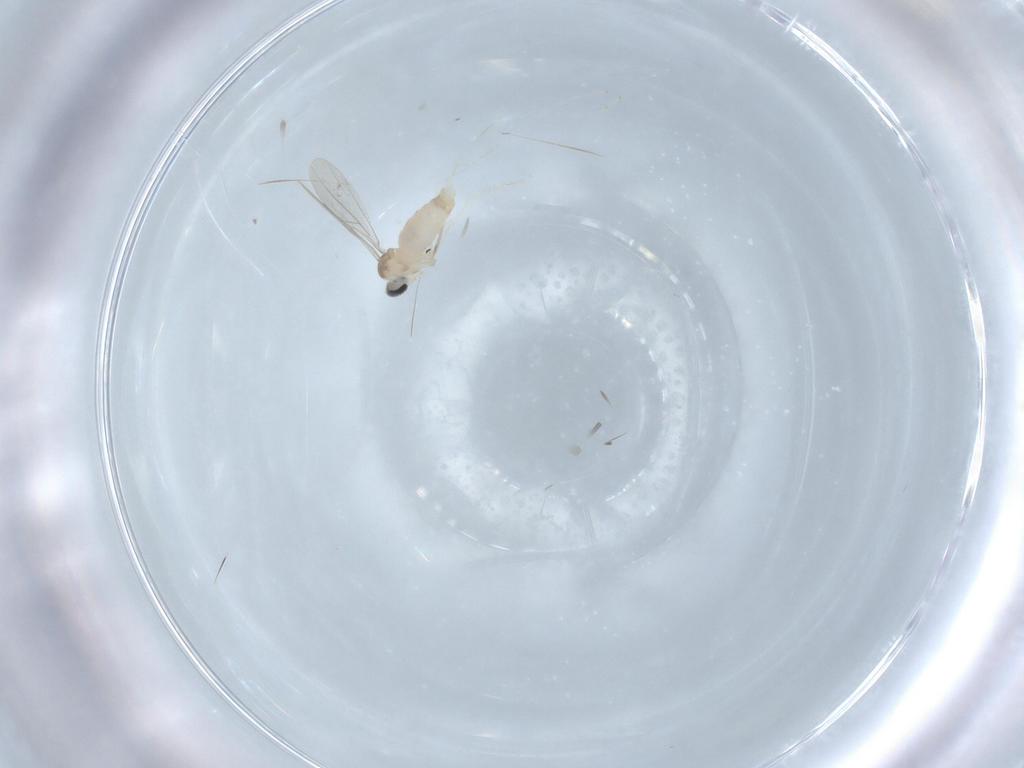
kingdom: Animalia
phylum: Arthropoda
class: Insecta
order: Diptera
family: Cecidomyiidae
